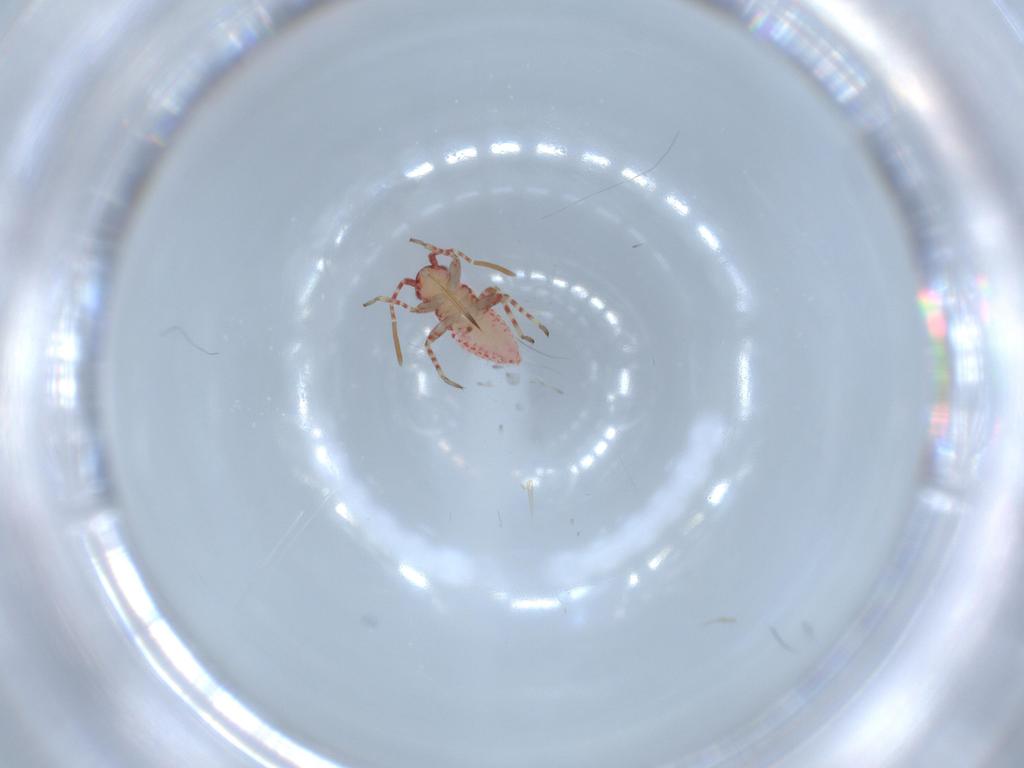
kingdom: Animalia
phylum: Arthropoda
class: Insecta
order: Hemiptera
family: Miridae
